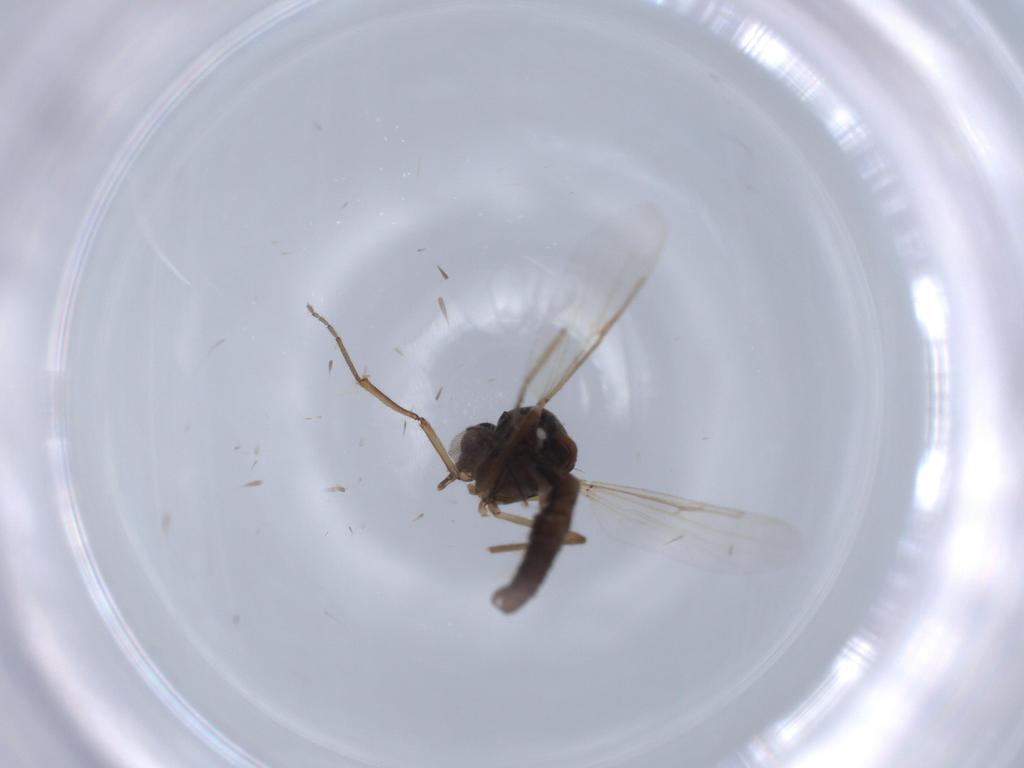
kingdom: Animalia
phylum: Arthropoda
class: Insecta
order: Diptera
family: Ceratopogonidae
